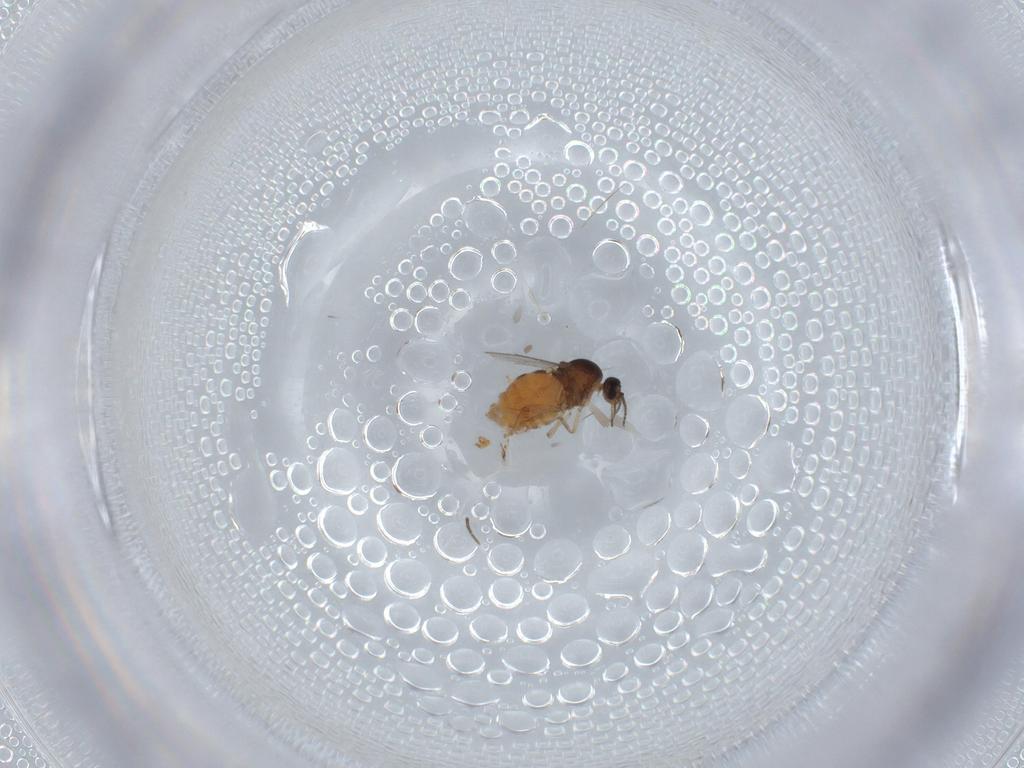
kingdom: Animalia
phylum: Arthropoda
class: Insecta
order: Diptera
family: Ceratopogonidae
